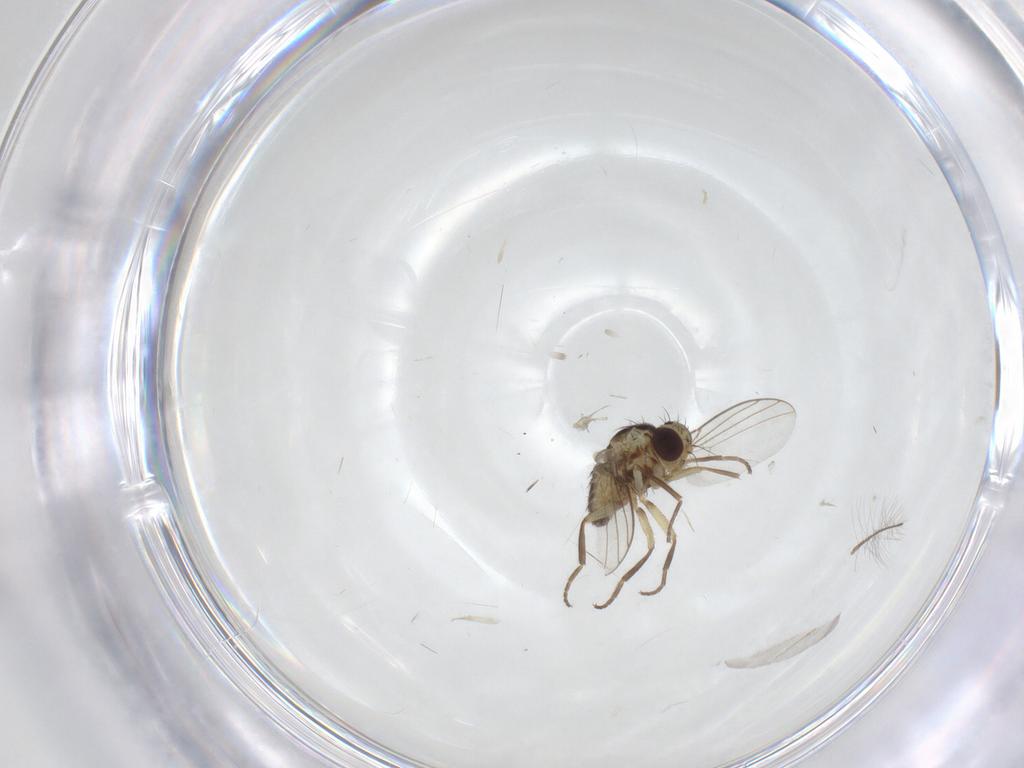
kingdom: Animalia
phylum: Arthropoda
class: Insecta
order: Diptera
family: Agromyzidae
